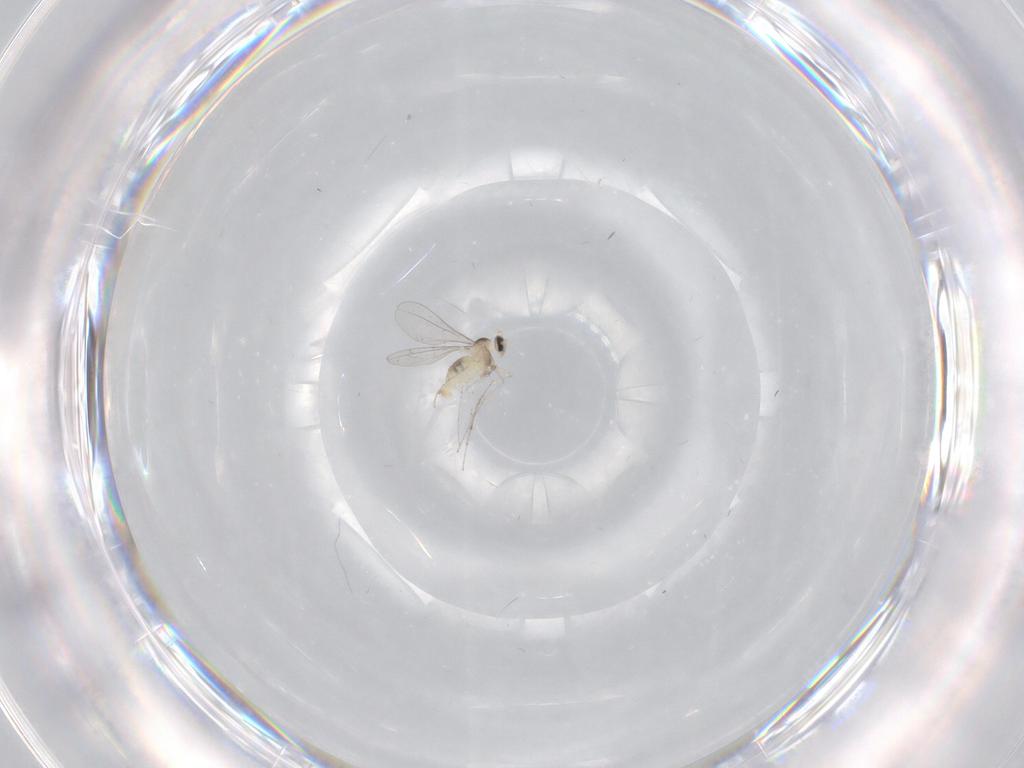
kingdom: Animalia
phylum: Arthropoda
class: Insecta
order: Diptera
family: Cecidomyiidae
